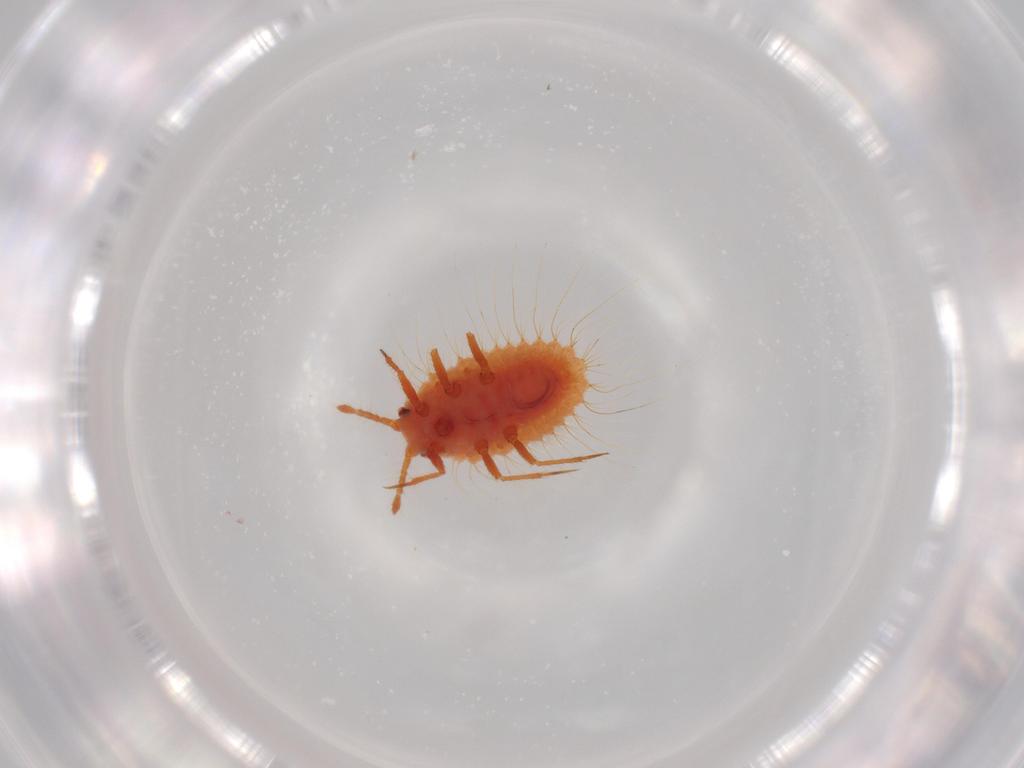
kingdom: Animalia
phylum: Arthropoda
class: Insecta
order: Hemiptera
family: Coccoidea_incertae_sedis
